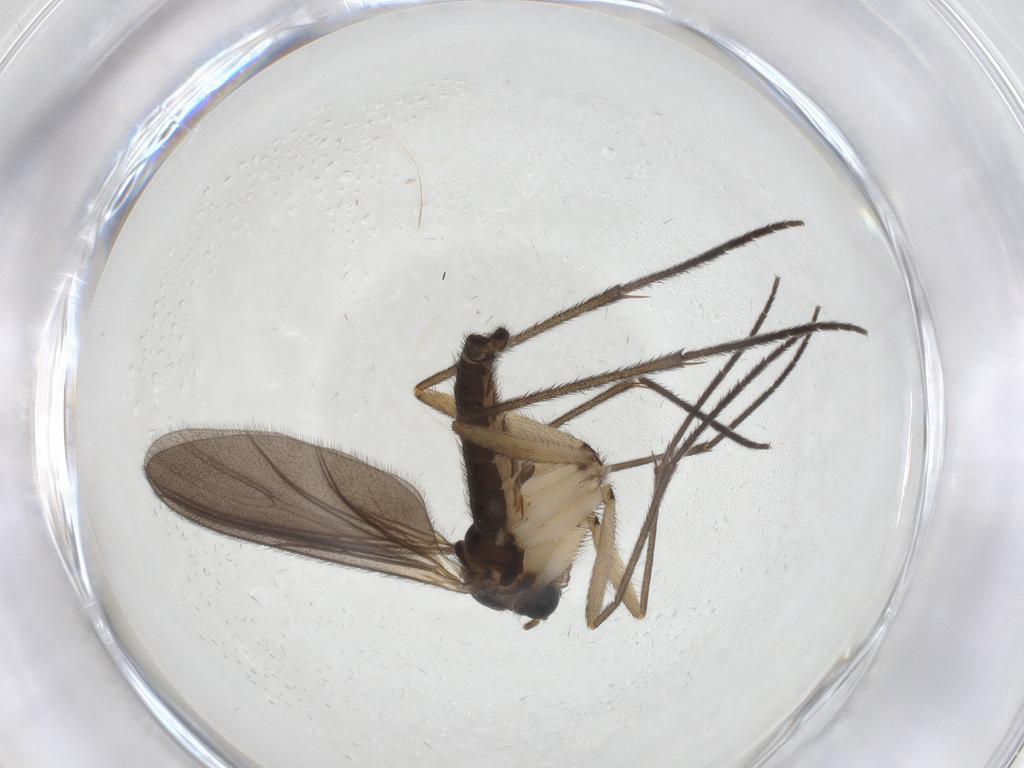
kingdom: Animalia
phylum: Arthropoda
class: Insecta
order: Diptera
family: Sciaridae
